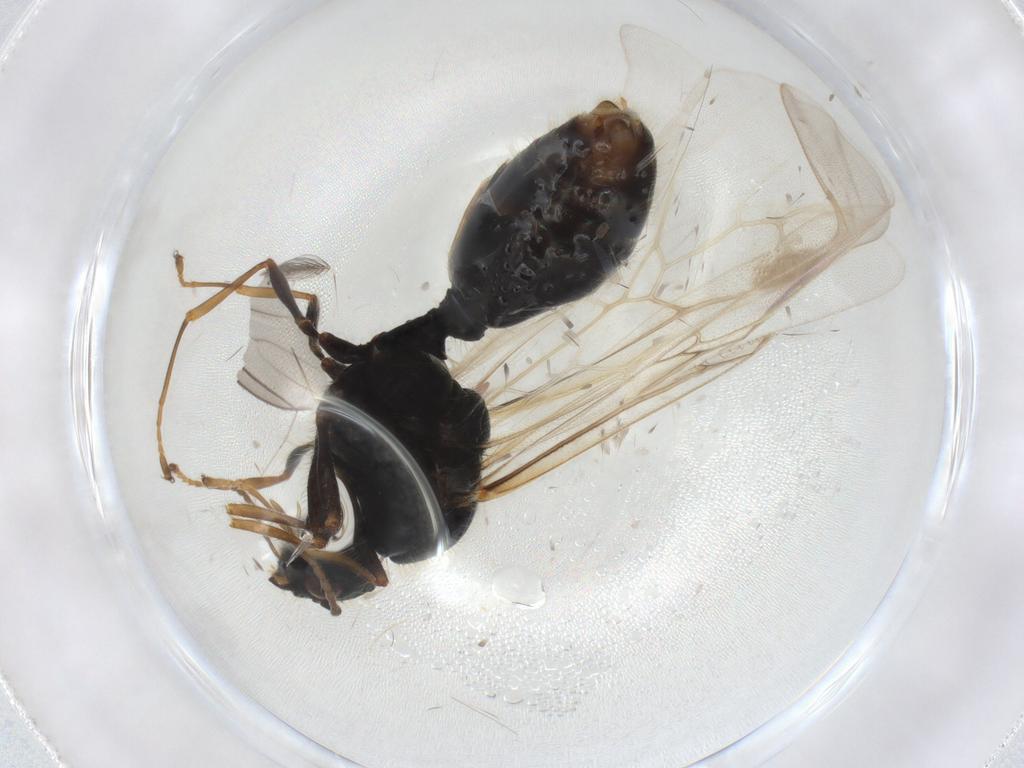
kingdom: Animalia
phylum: Arthropoda
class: Insecta
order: Hymenoptera
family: Formicidae
